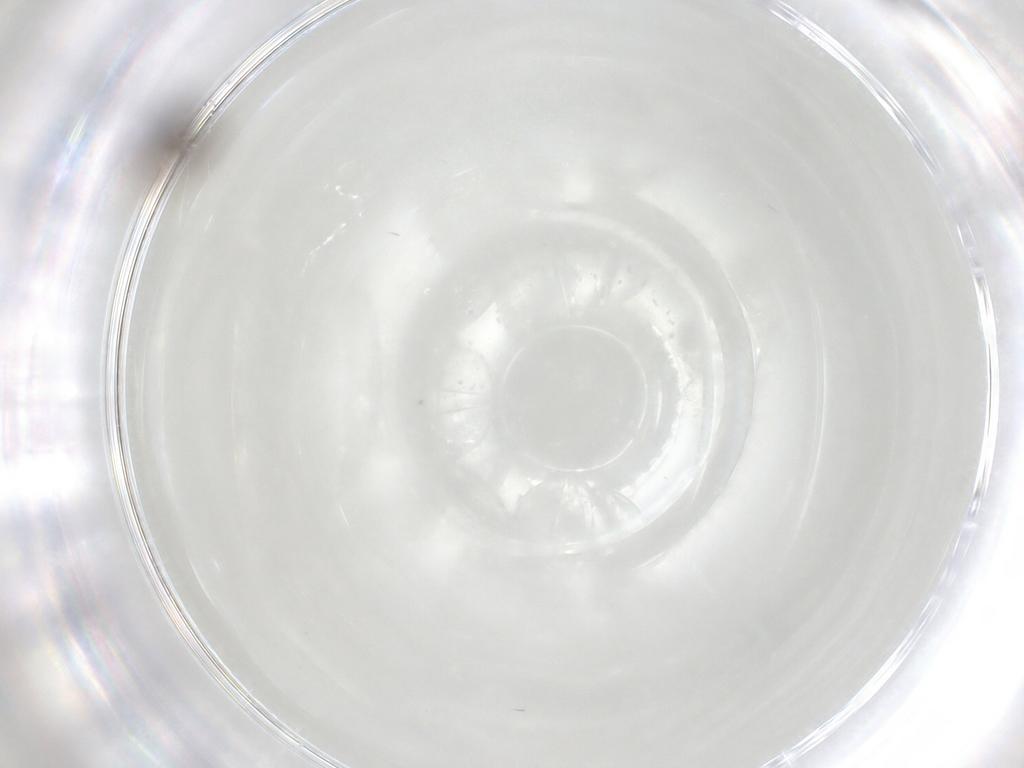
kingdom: Animalia
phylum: Arthropoda
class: Insecta
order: Diptera
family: Ceratopogonidae
